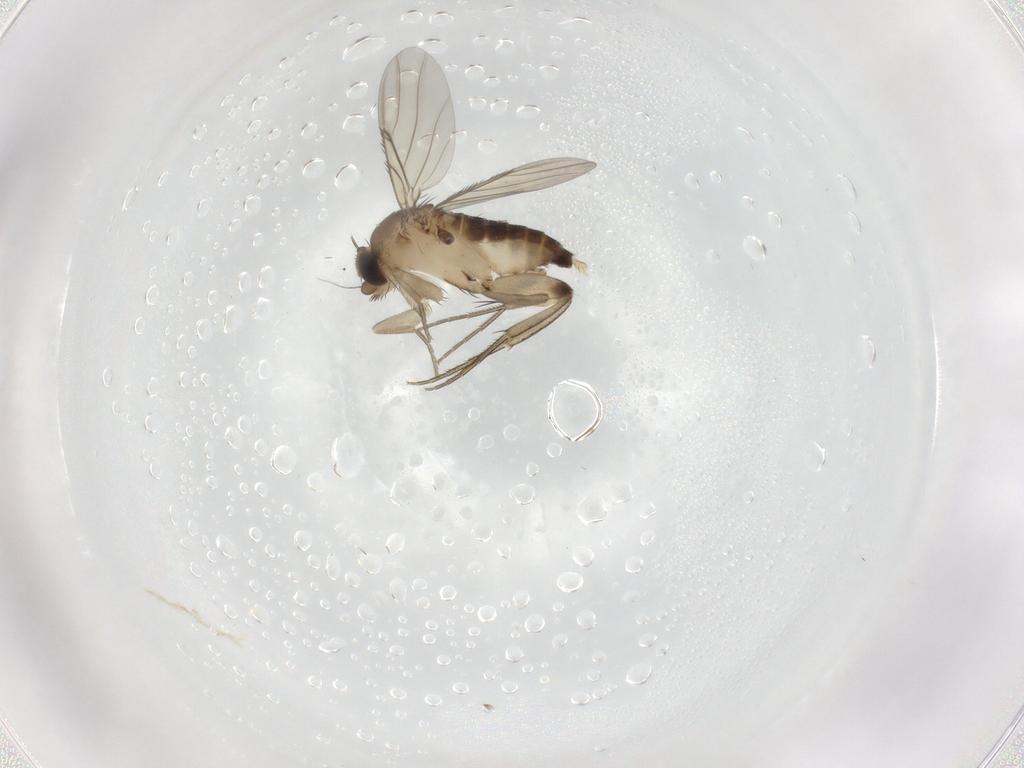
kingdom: Animalia
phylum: Arthropoda
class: Insecta
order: Diptera
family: Phoridae
